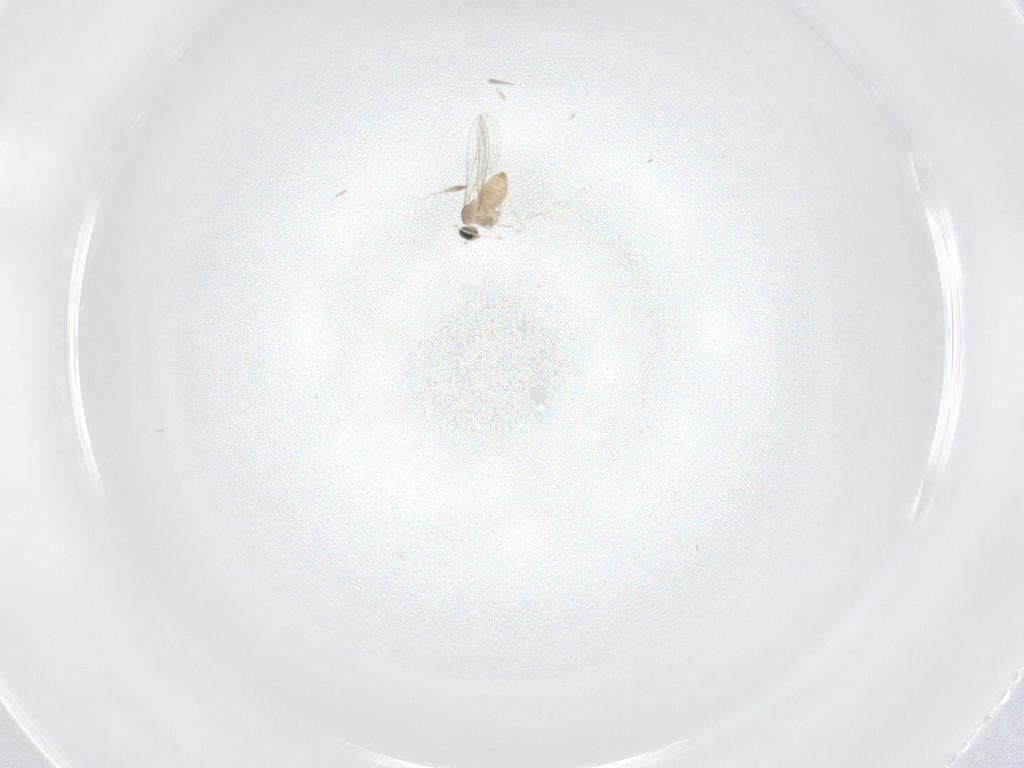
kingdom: Animalia
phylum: Arthropoda
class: Insecta
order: Diptera
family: Cecidomyiidae
